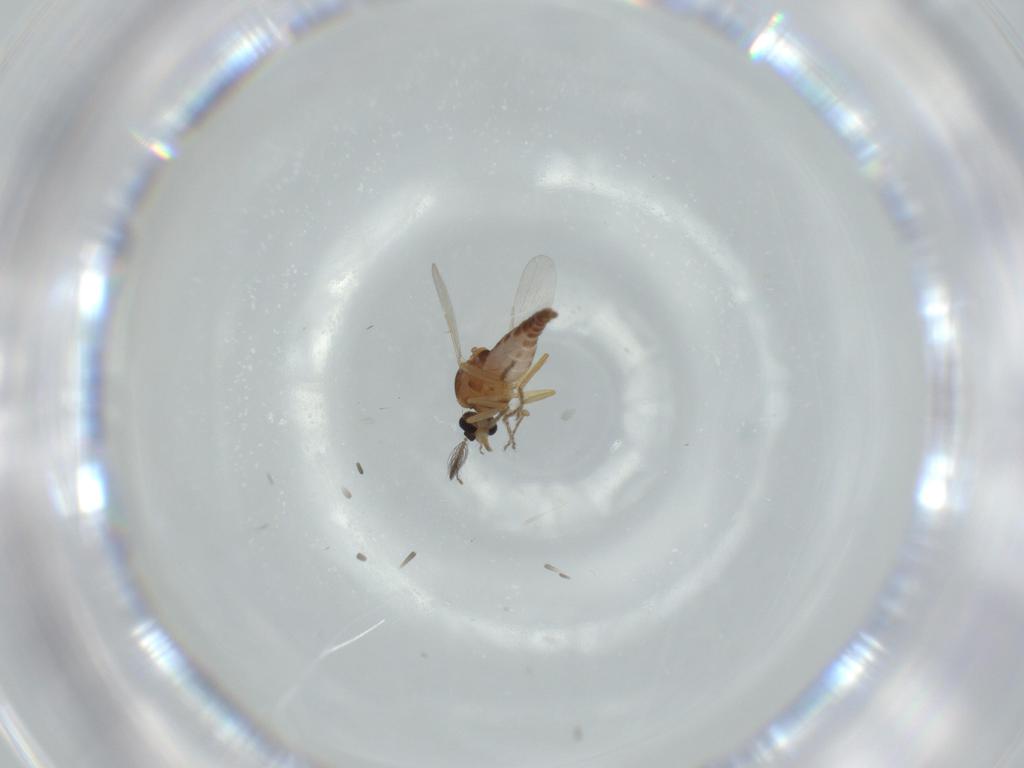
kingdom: Animalia
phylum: Arthropoda
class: Insecta
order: Diptera
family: Ceratopogonidae
